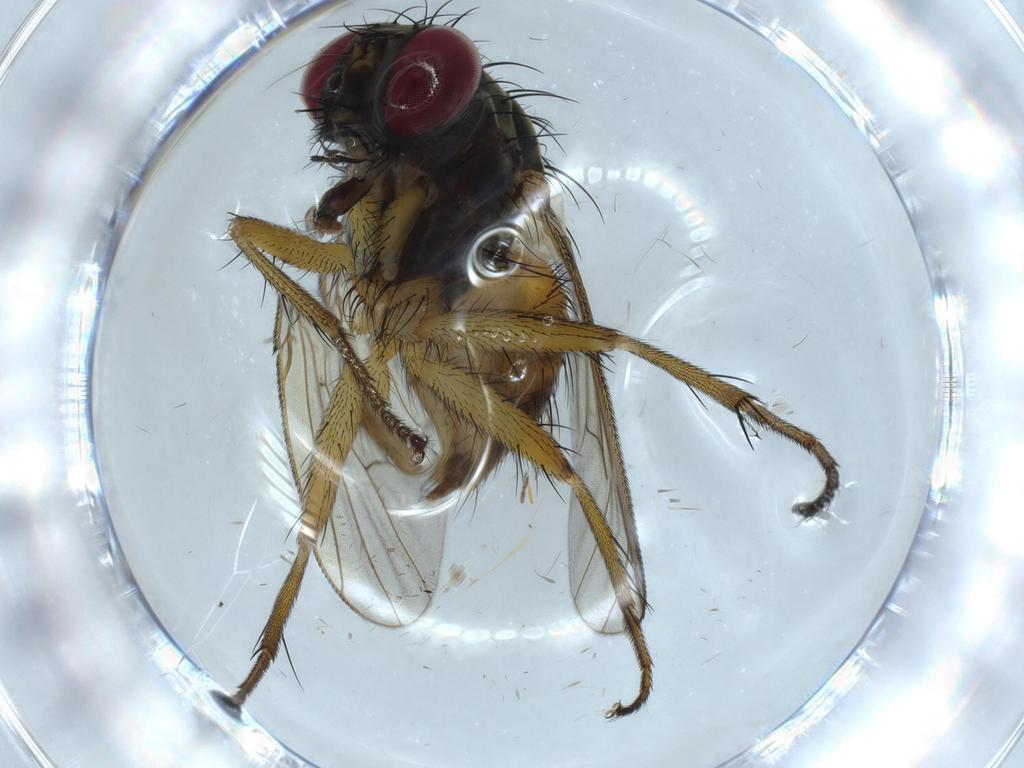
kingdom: Animalia
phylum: Arthropoda
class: Insecta
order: Diptera
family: Muscidae
